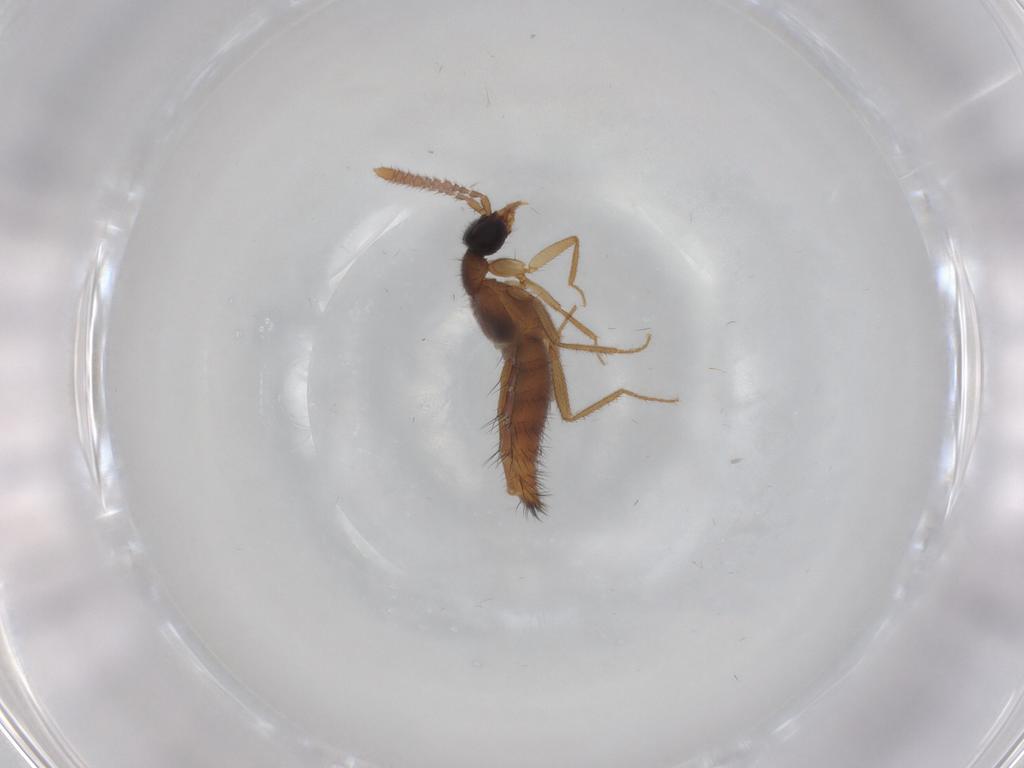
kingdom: Animalia
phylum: Arthropoda
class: Insecta
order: Coleoptera
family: Staphylinidae
